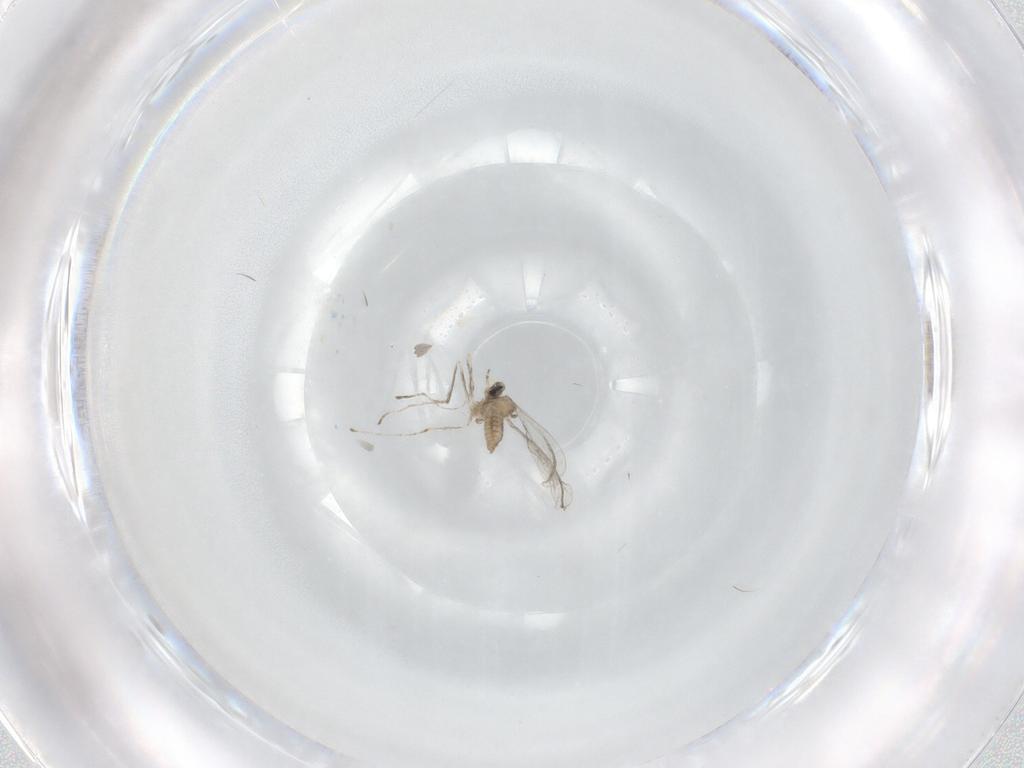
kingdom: Animalia
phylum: Arthropoda
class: Insecta
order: Diptera
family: Cecidomyiidae
